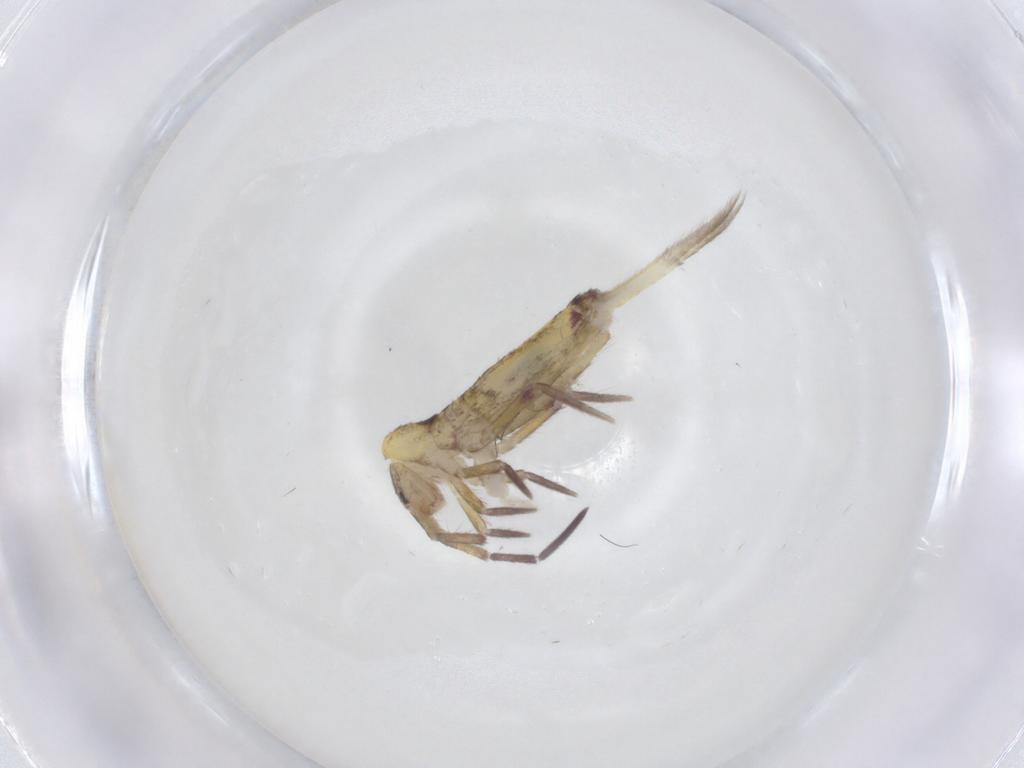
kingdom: Animalia
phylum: Arthropoda
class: Collembola
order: Entomobryomorpha
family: Entomobryidae
